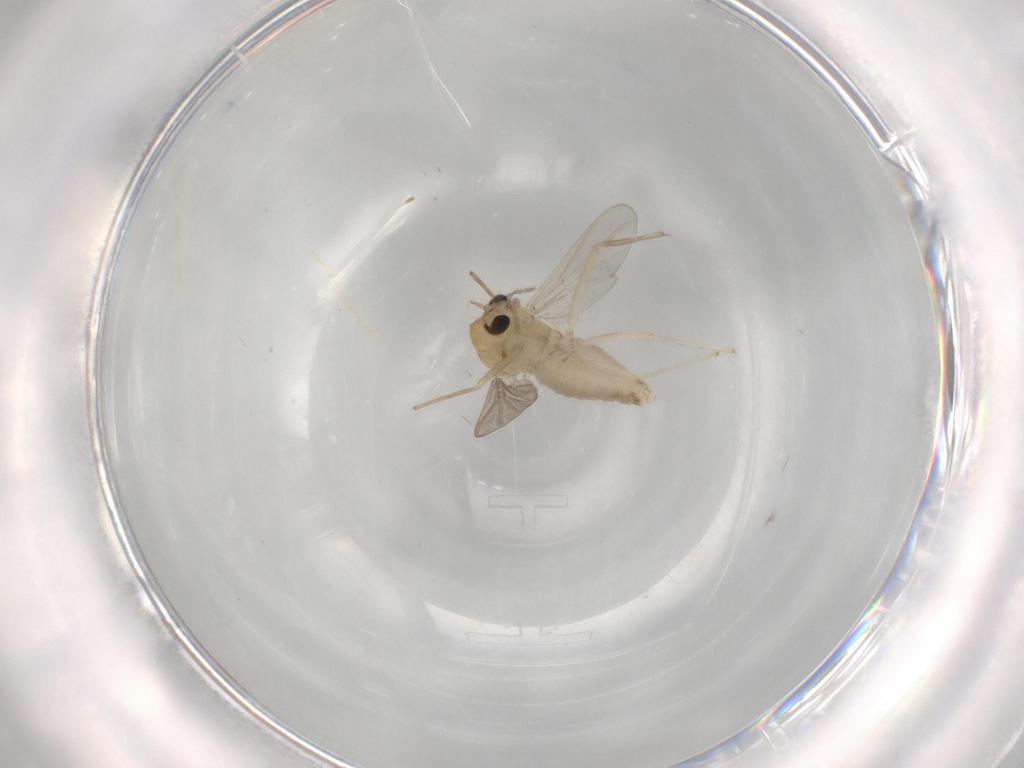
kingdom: Animalia
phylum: Arthropoda
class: Insecta
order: Diptera
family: Chironomidae
